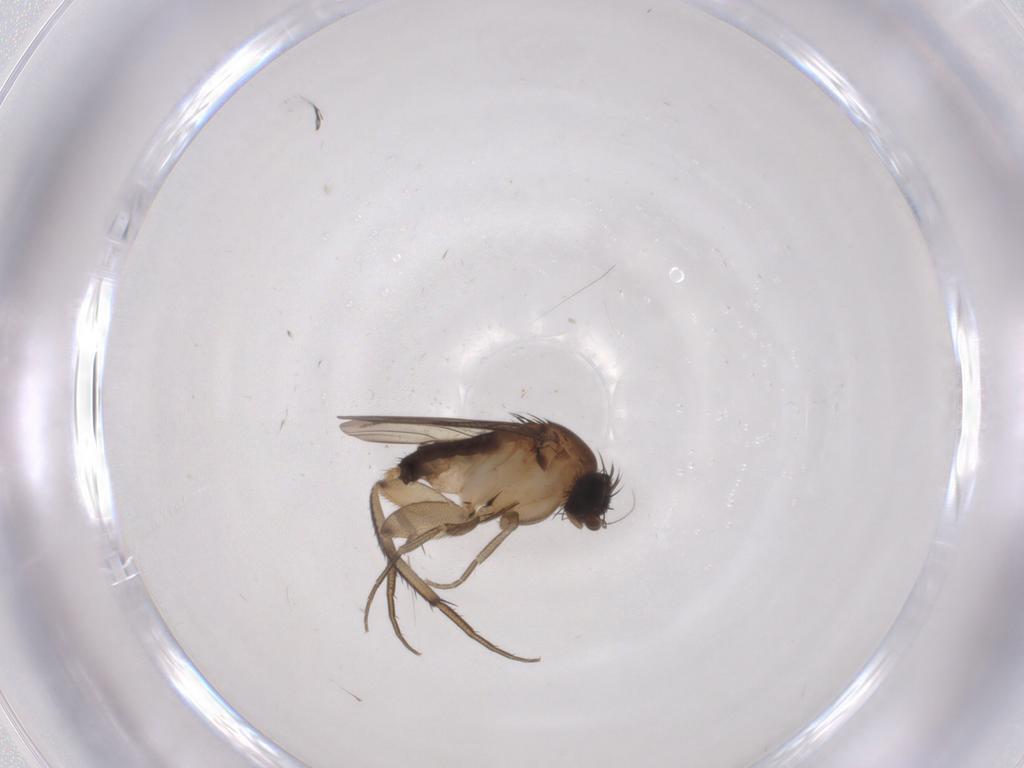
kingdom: Animalia
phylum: Arthropoda
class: Insecta
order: Diptera
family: Phoridae
